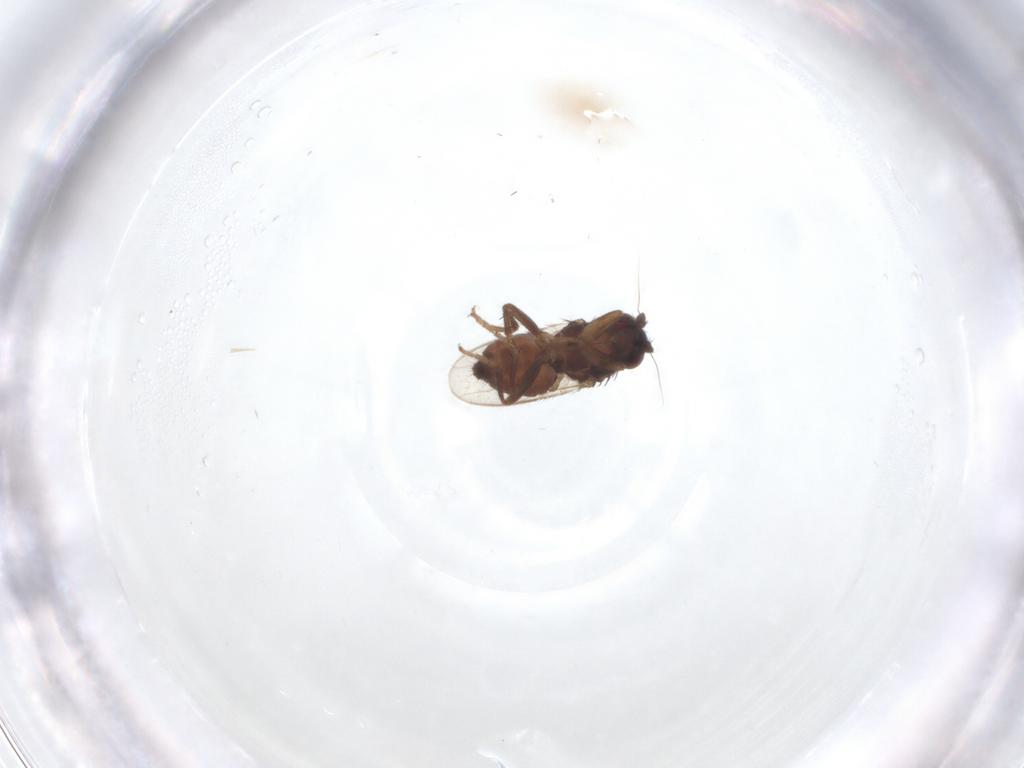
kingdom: Animalia
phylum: Arthropoda
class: Insecta
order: Diptera
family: Sphaeroceridae
